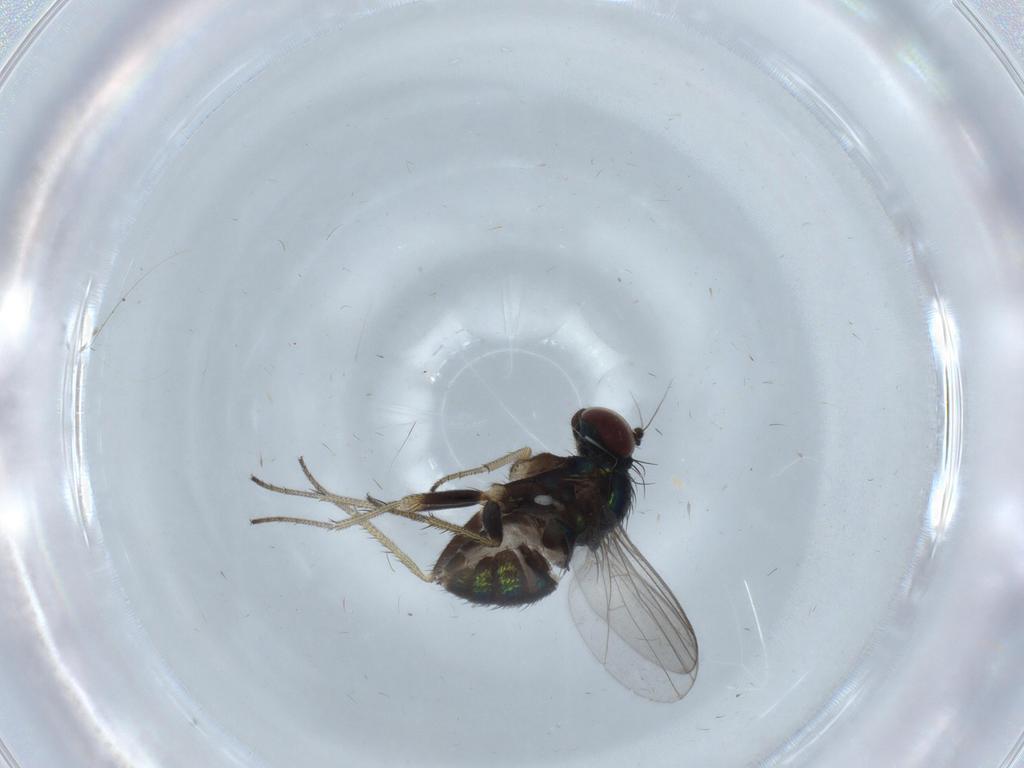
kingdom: Animalia
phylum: Arthropoda
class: Insecta
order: Diptera
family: Dolichopodidae
